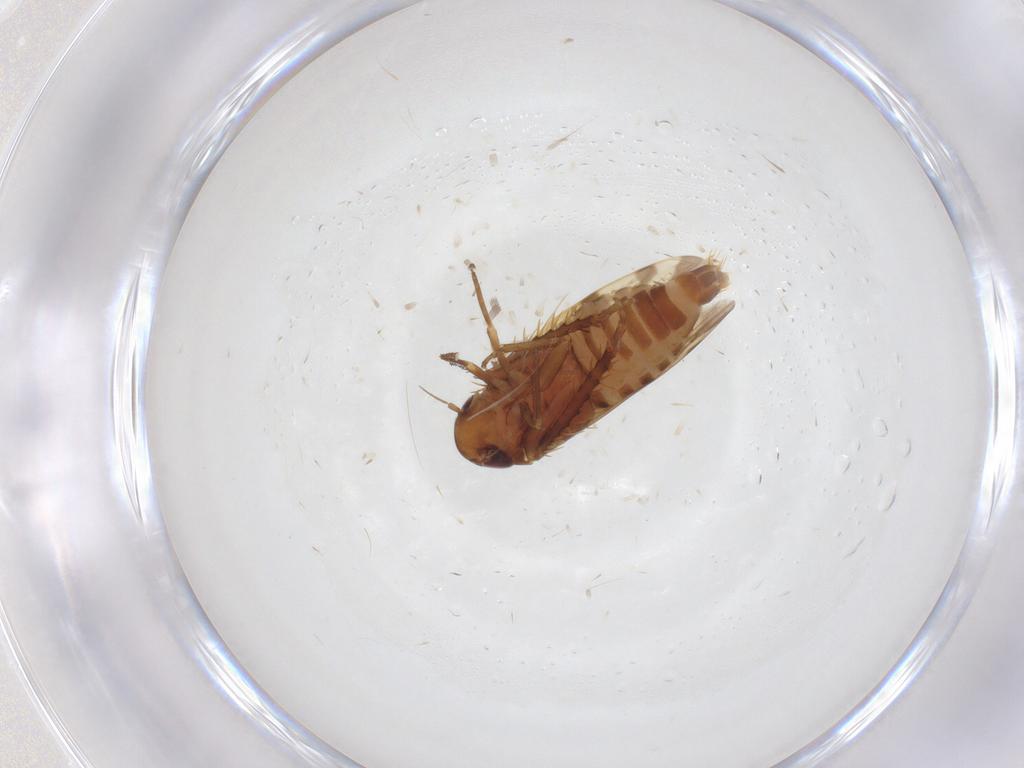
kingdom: Animalia
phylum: Arthropoda
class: Insecta
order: Hemiptera
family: Cicadellidae
